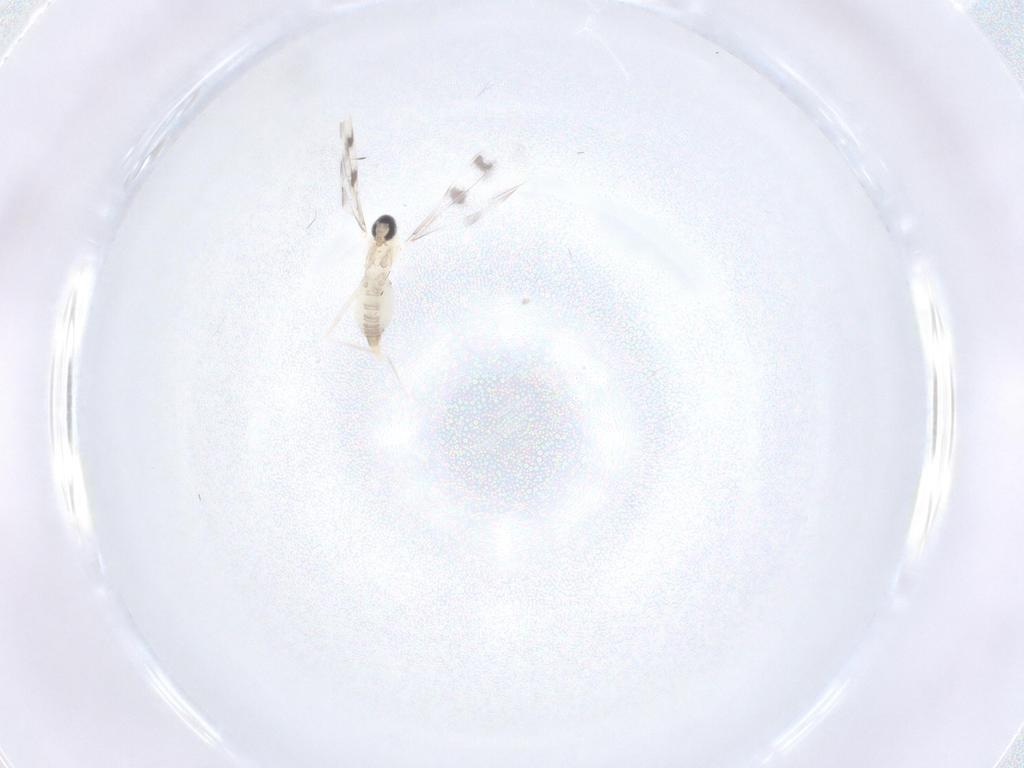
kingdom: Animalia
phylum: Arthropoda
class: Insecta
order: Diptera
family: Cecidomyiidae
